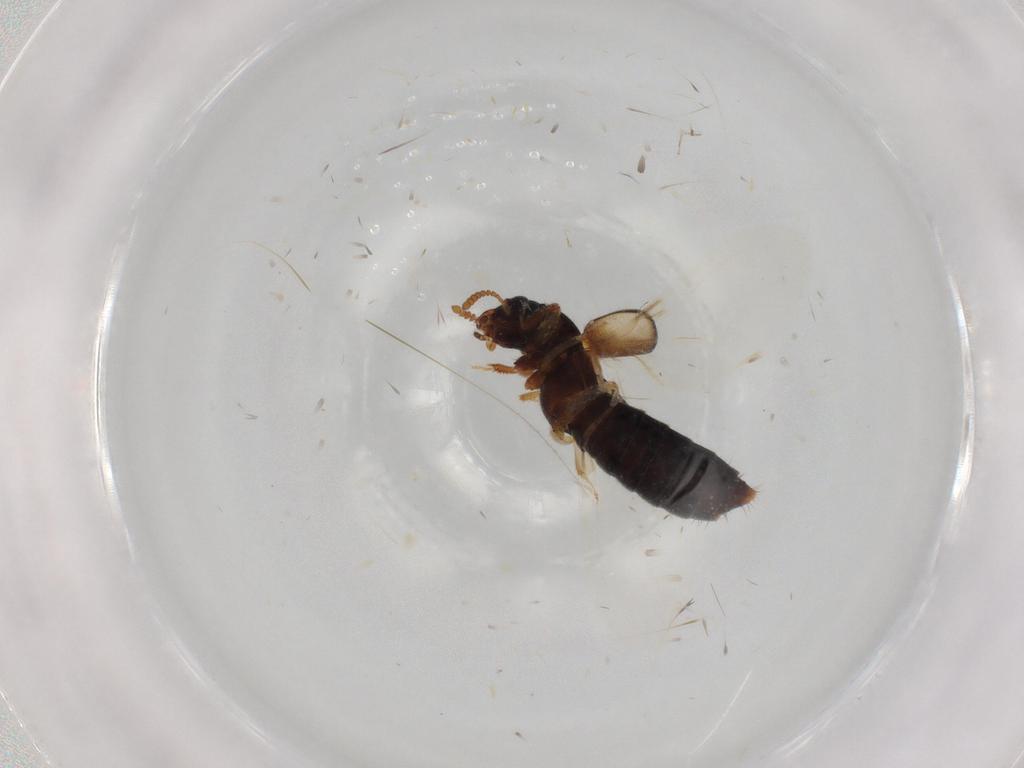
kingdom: Animalia
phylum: Arthropoda
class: Insecta
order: Coleoptera
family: Staphylinidae
